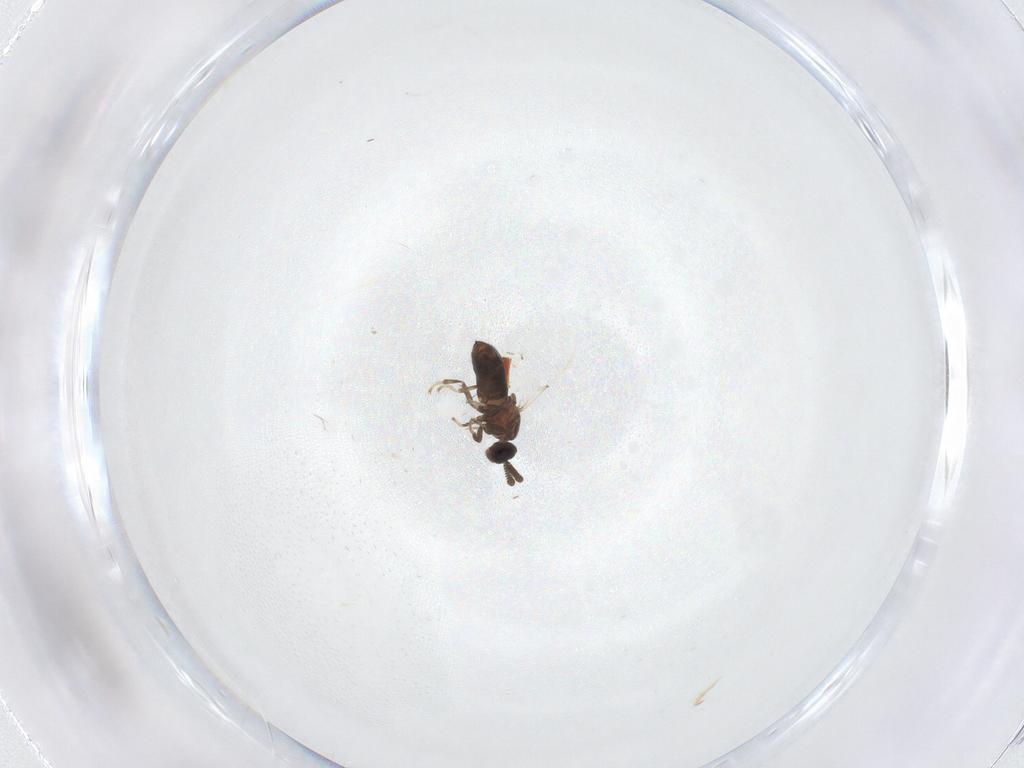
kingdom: Animalia
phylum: Arthropoda
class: Insecta
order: Diptera
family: Scatopsidae
